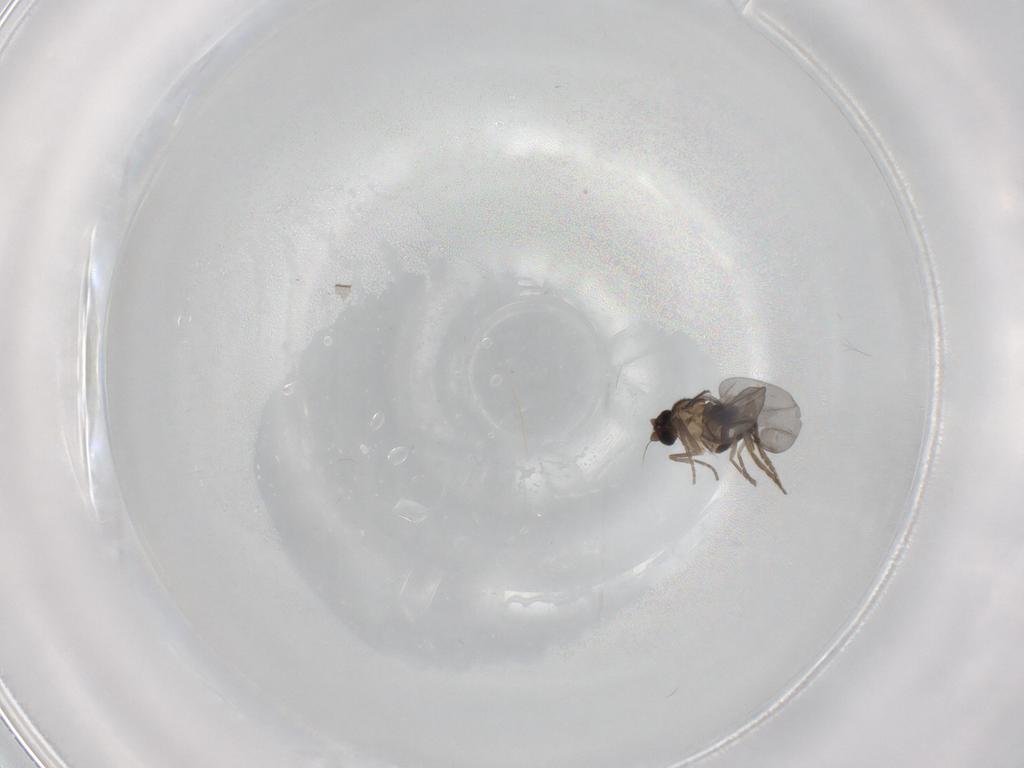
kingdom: Animalia
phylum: Arthropoda
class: Insecta
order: Diptera
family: Phoridae
